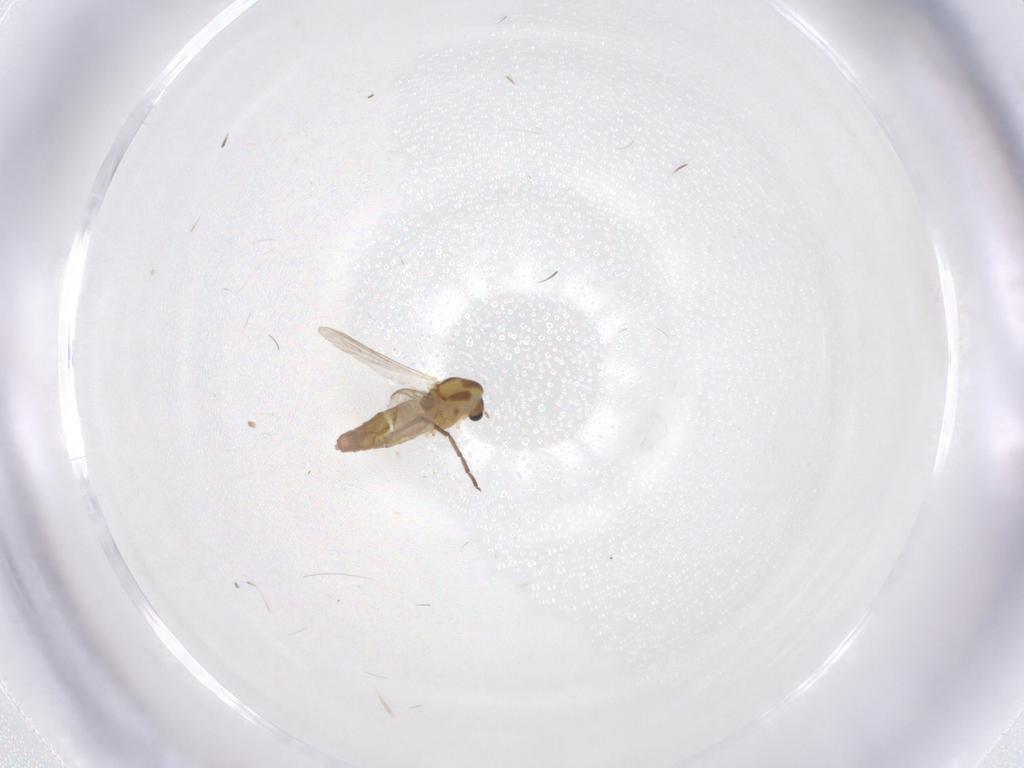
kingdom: Animalia
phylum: Arthropoda
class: Insecta
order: Diptera
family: Chironomidae
